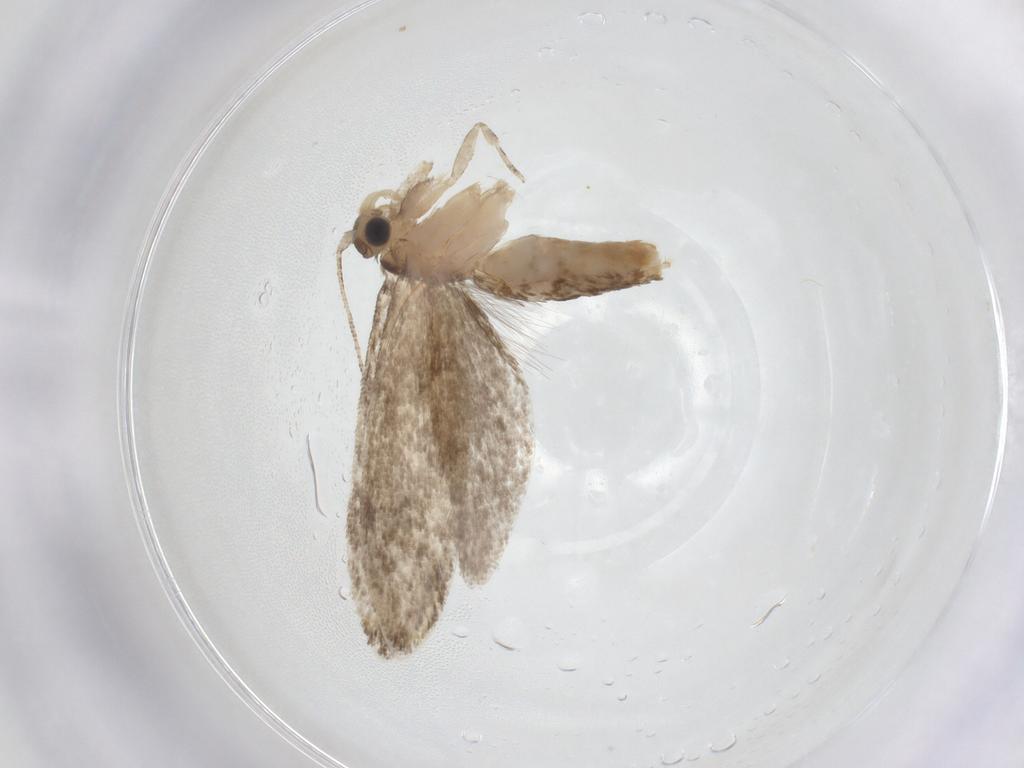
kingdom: Animalia
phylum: Arthropoda
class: Insecta
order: Lepidoptera
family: Tineidae
